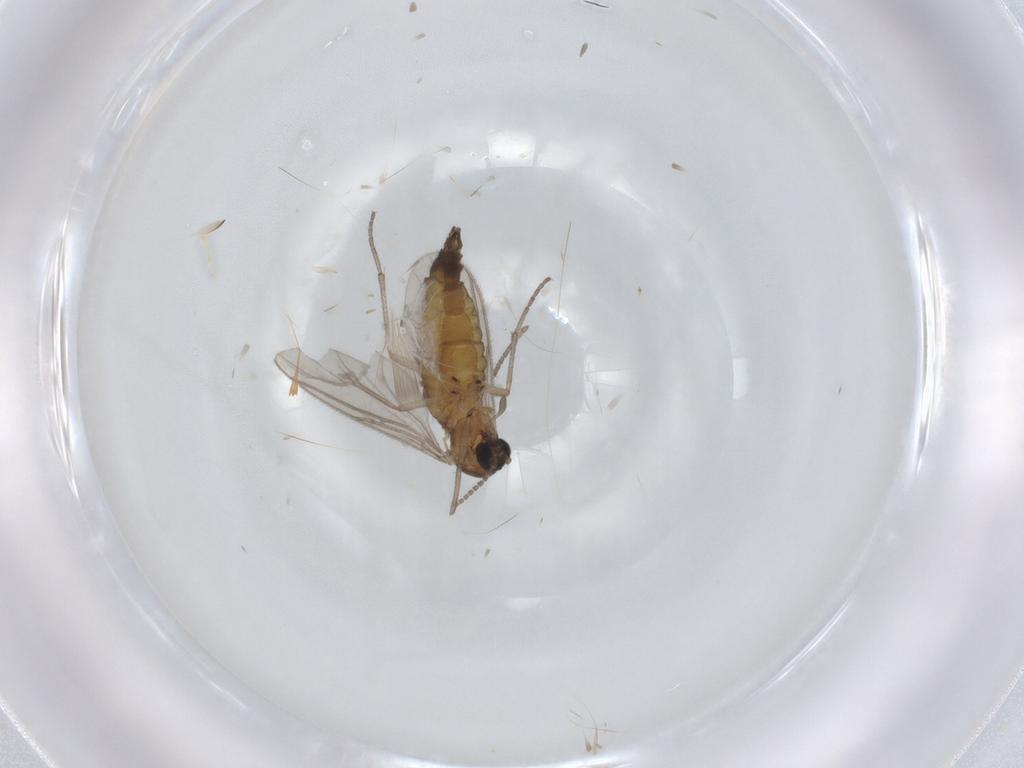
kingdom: Animalia
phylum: Arthropoda
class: Insecta
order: Diptera
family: Sciaridae
